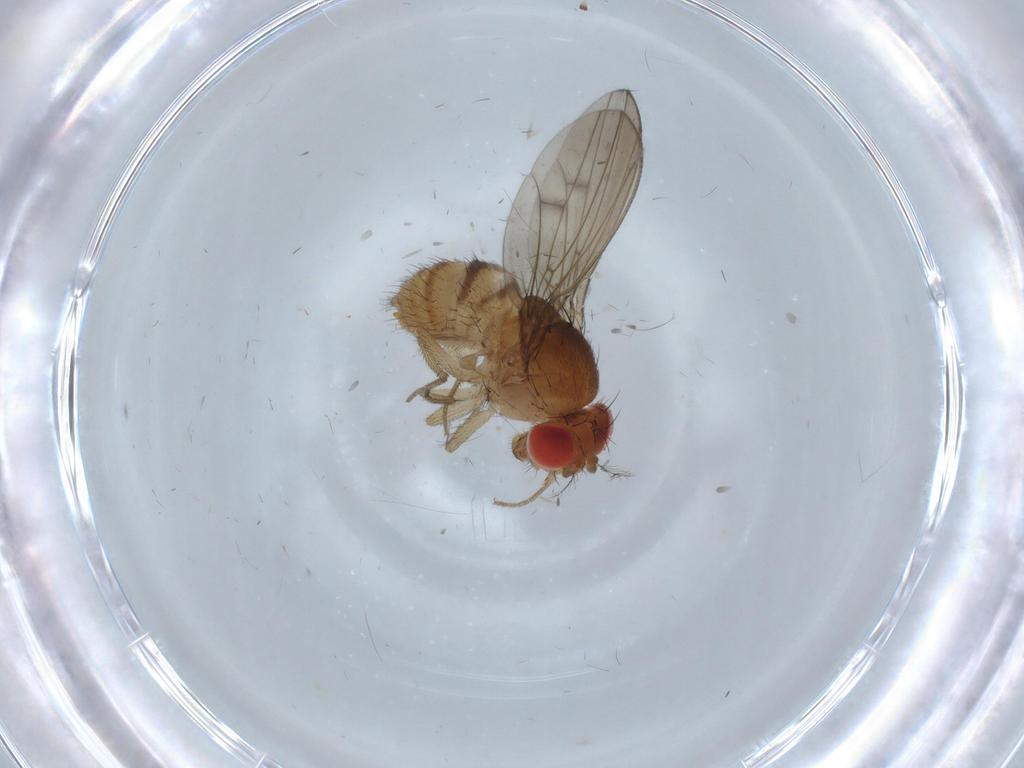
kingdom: Animalia
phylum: Arthropoda
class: Insecta
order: Diptera
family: Drosophilidae
